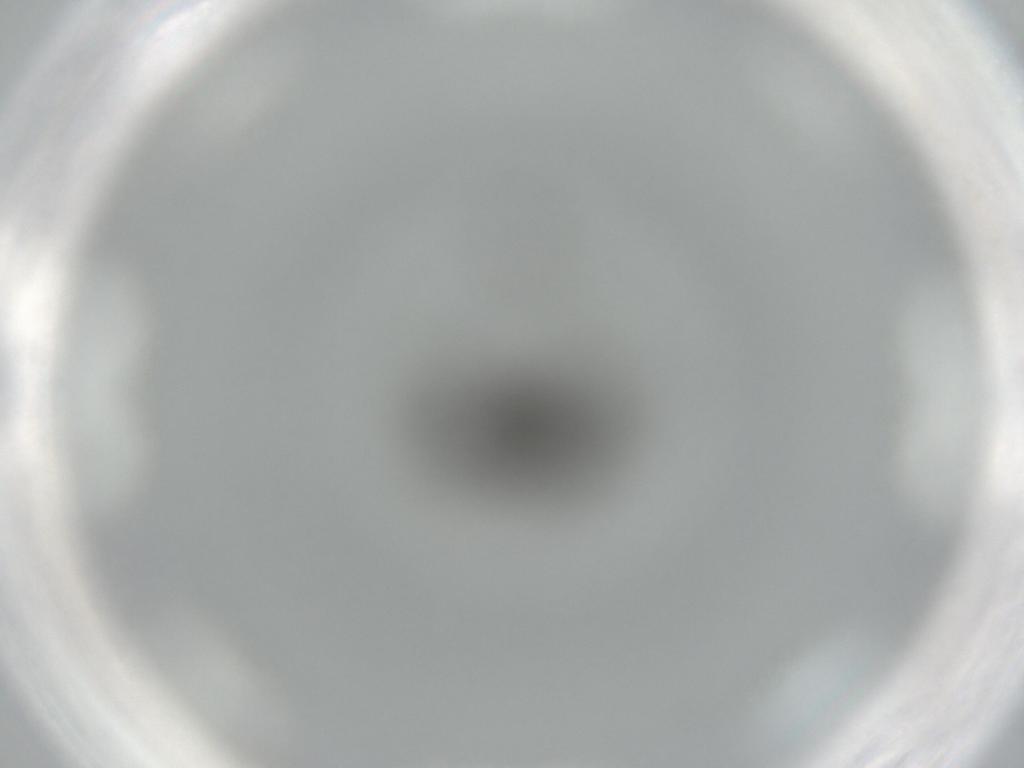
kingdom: Animalia
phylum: Arthropoda
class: Insecta
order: Diptera
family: Phoridae
